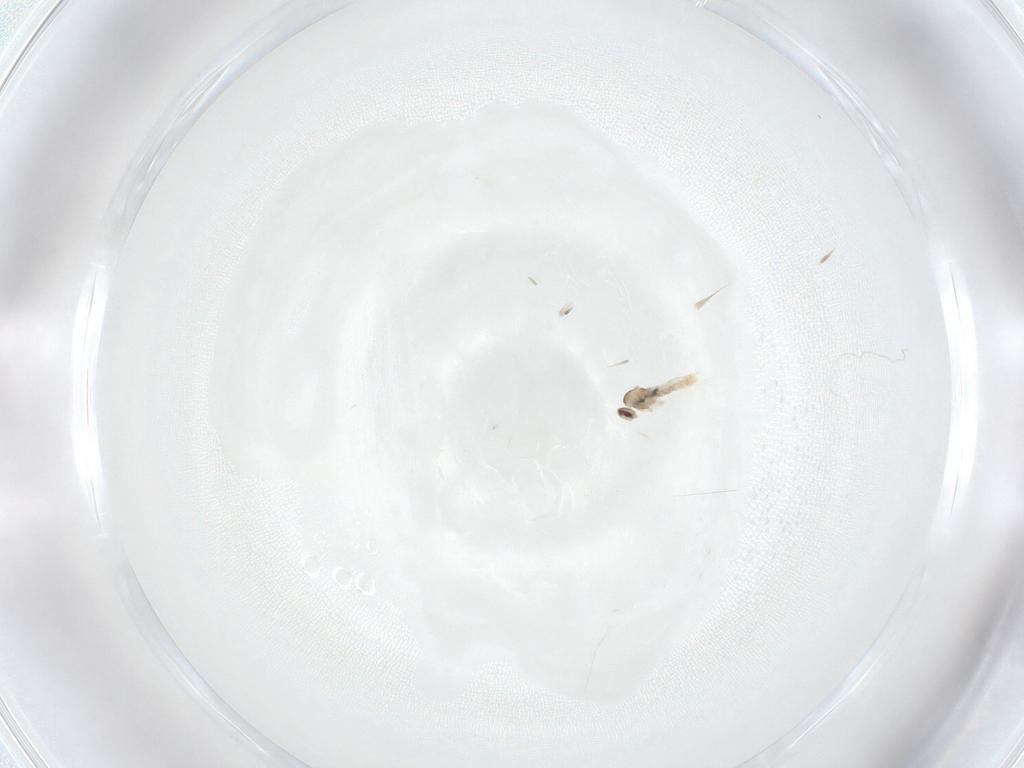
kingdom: Animalia
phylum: Arthropoda
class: Insecta
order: Diptera
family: Cecidomyiidae
